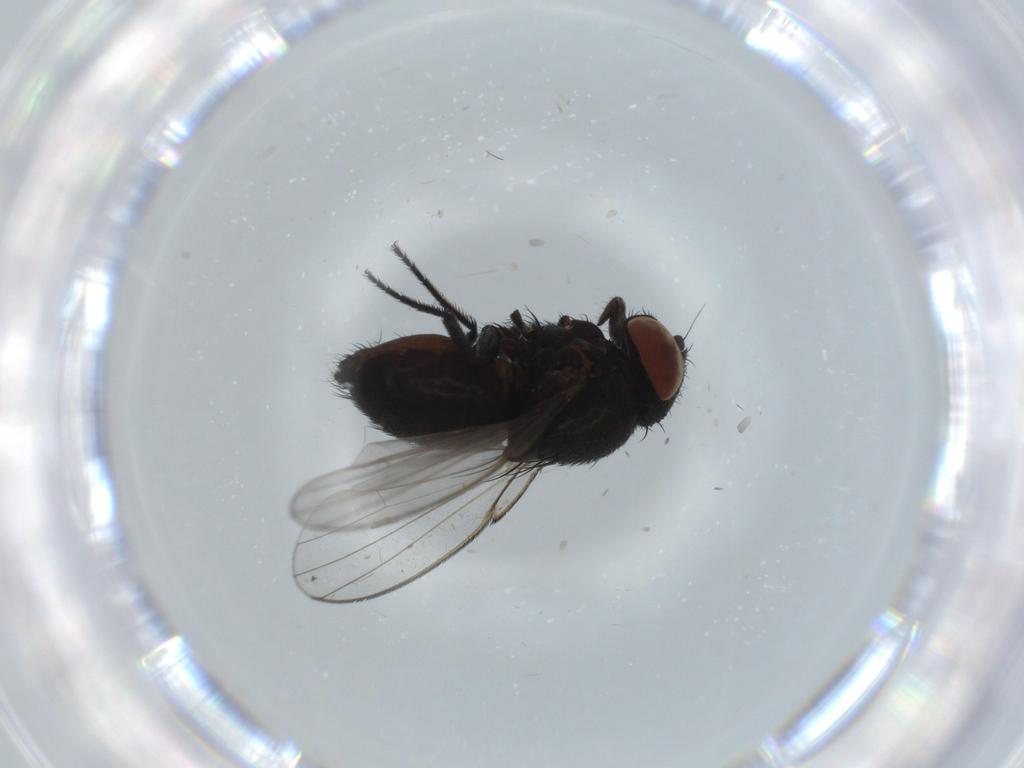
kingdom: Animalia
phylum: Arthropoda
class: Insecta
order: Diptera
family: Milichiidae
